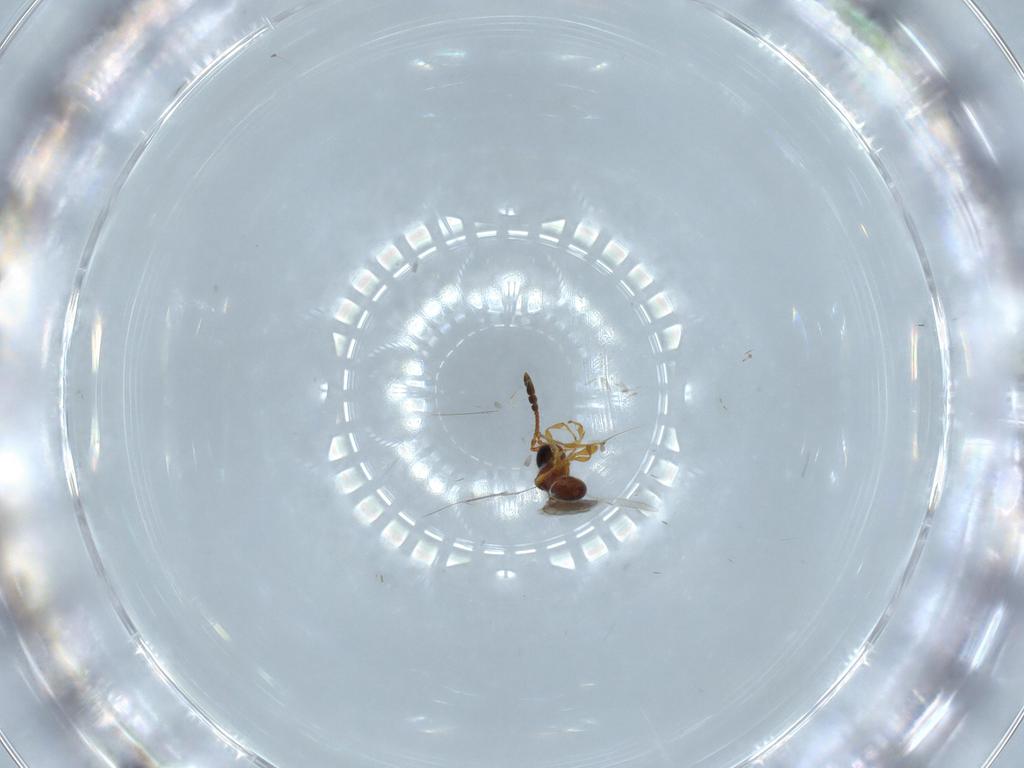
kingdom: Animalia
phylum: Arthropoda
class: Insecta
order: Hymenoptera
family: Diapriidae
